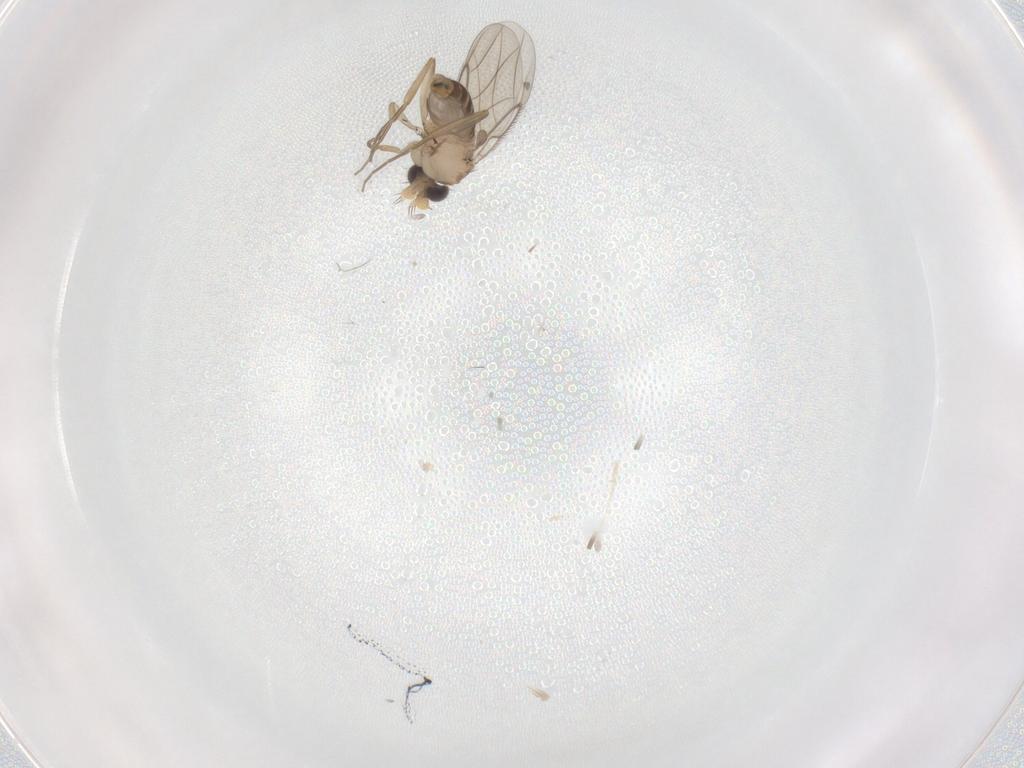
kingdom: Animalia
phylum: Arthropoda
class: Insecta
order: Diptera
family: Phoridae
